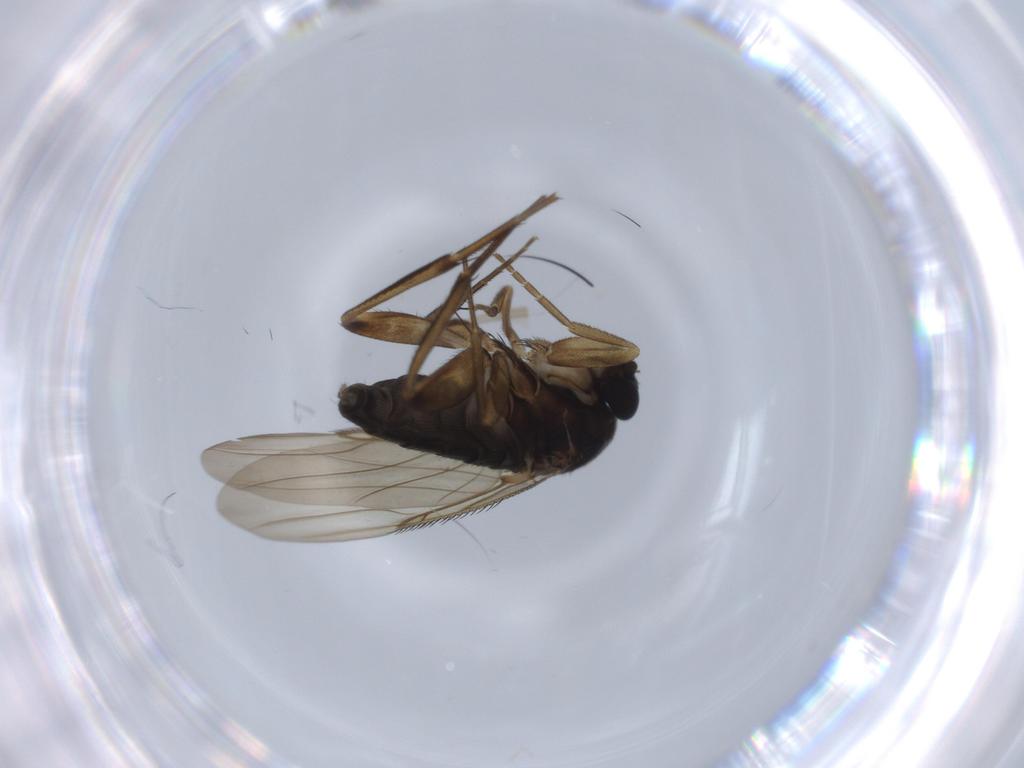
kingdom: Animalia
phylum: Arthropoda
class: Insecta
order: Diptera
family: Phoridae
